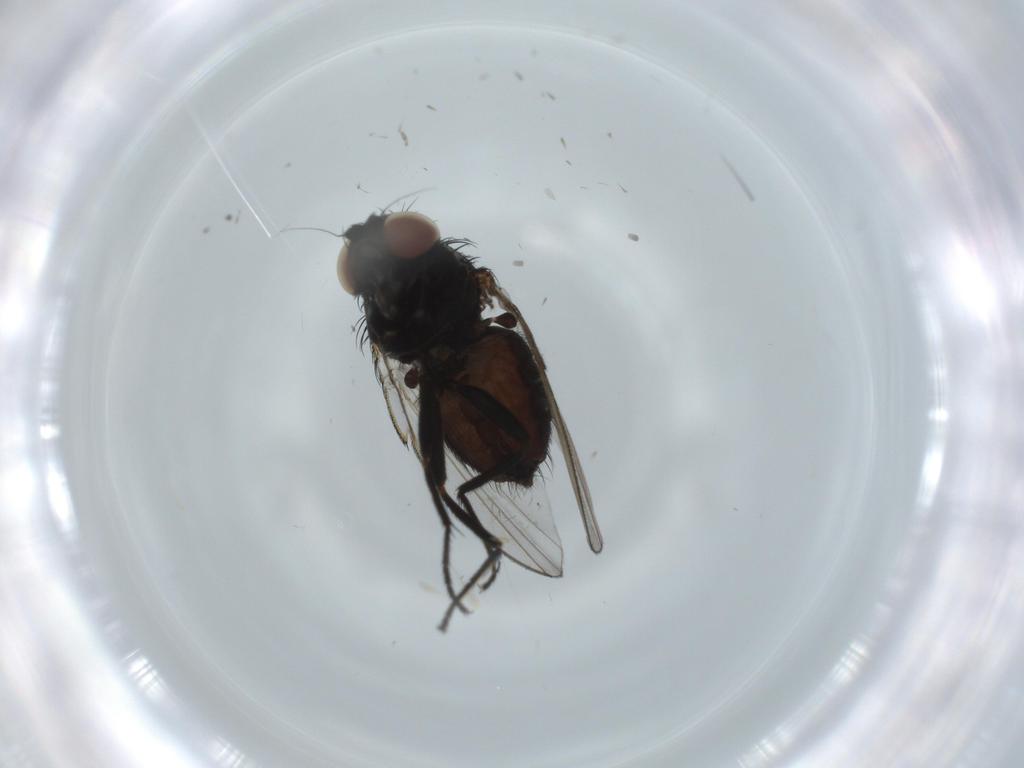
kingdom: Animalia
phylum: Arthropoda
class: Insecta
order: Diptera
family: Milichiidae
